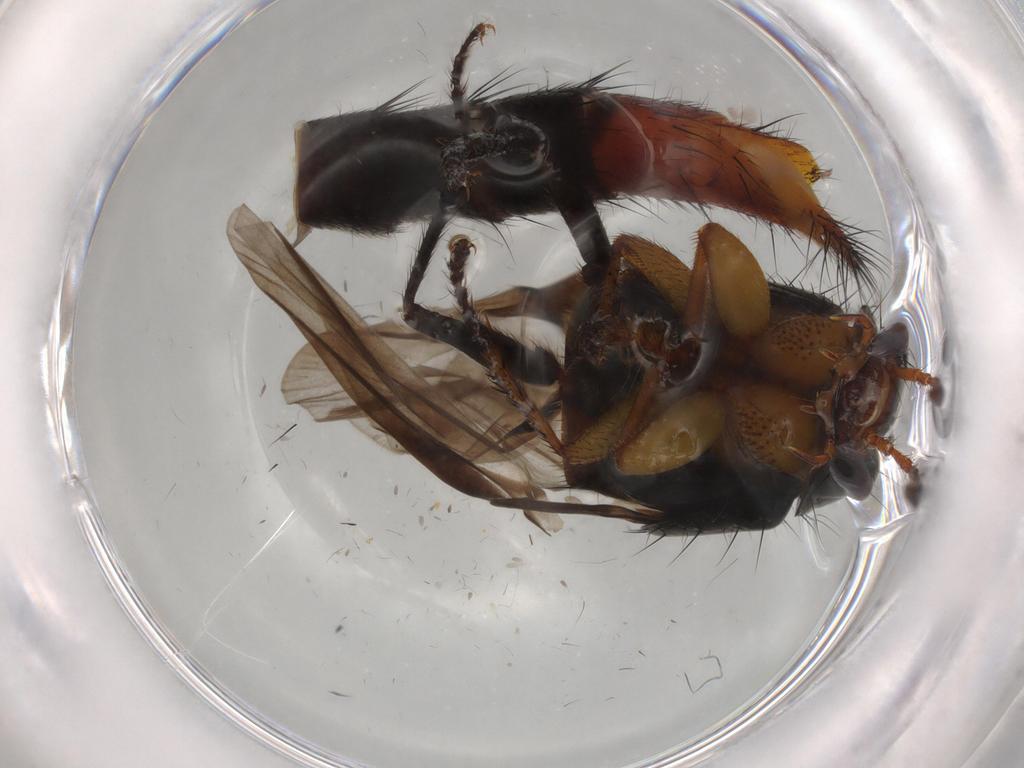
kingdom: Animalia
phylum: Arthropoda
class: Insecta
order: Coleoptera
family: Staphylinidae
